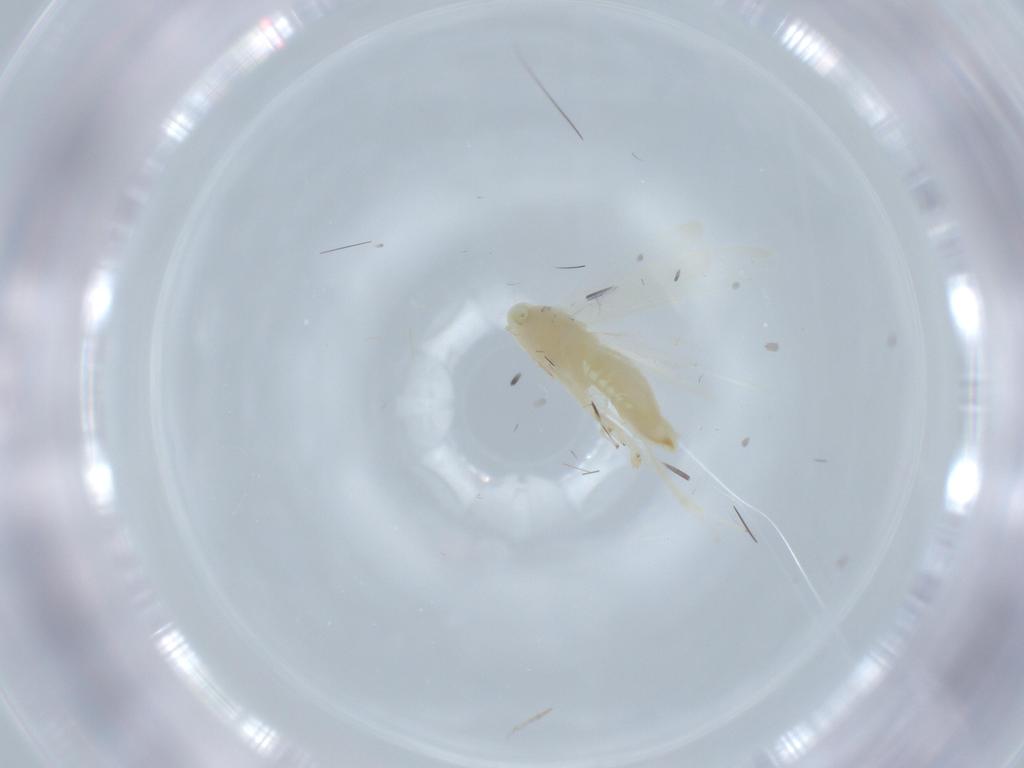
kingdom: Animalia
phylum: Arthropoda
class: Insecta
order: Hemiptera
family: Cicadellidae
